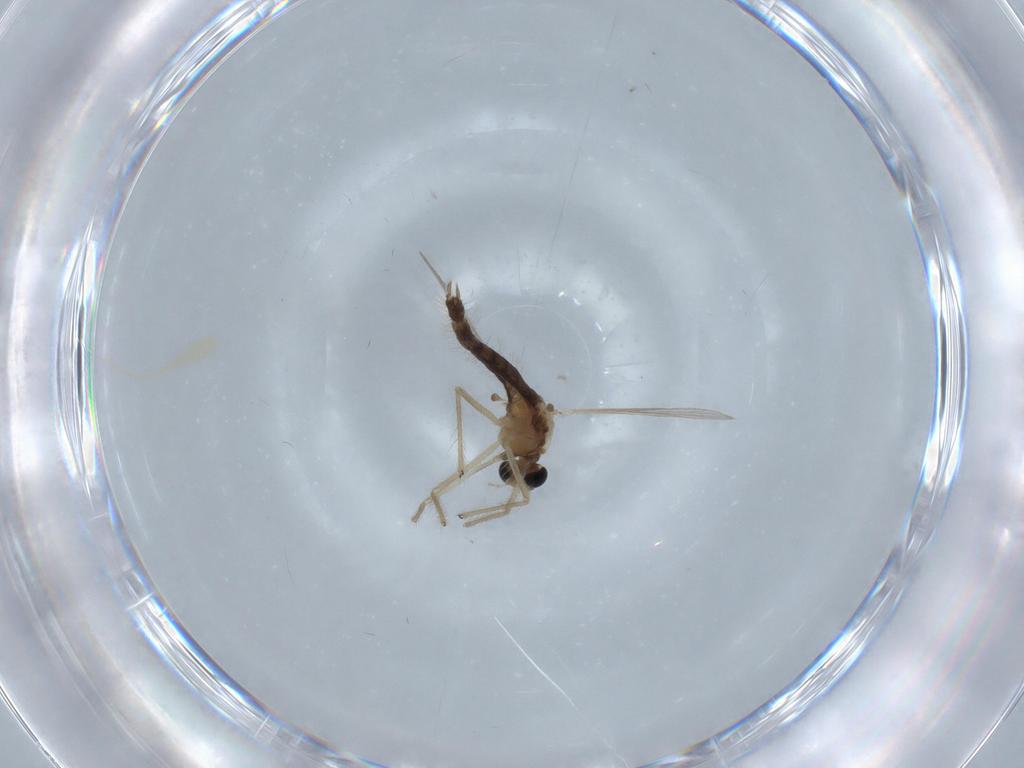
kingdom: Animalia
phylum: Arthropoda
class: Insecta
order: Diptera
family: Chironomidae
